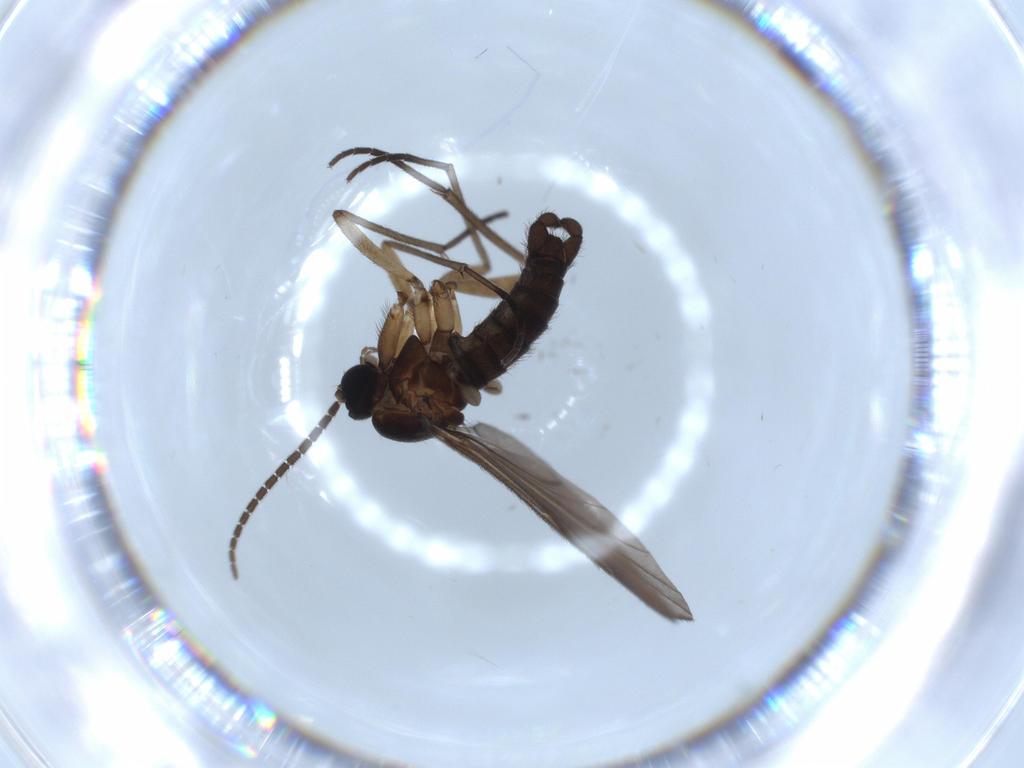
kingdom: Animalia
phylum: Arthropoda
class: Insecta
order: Diptera
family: Sciaridae
